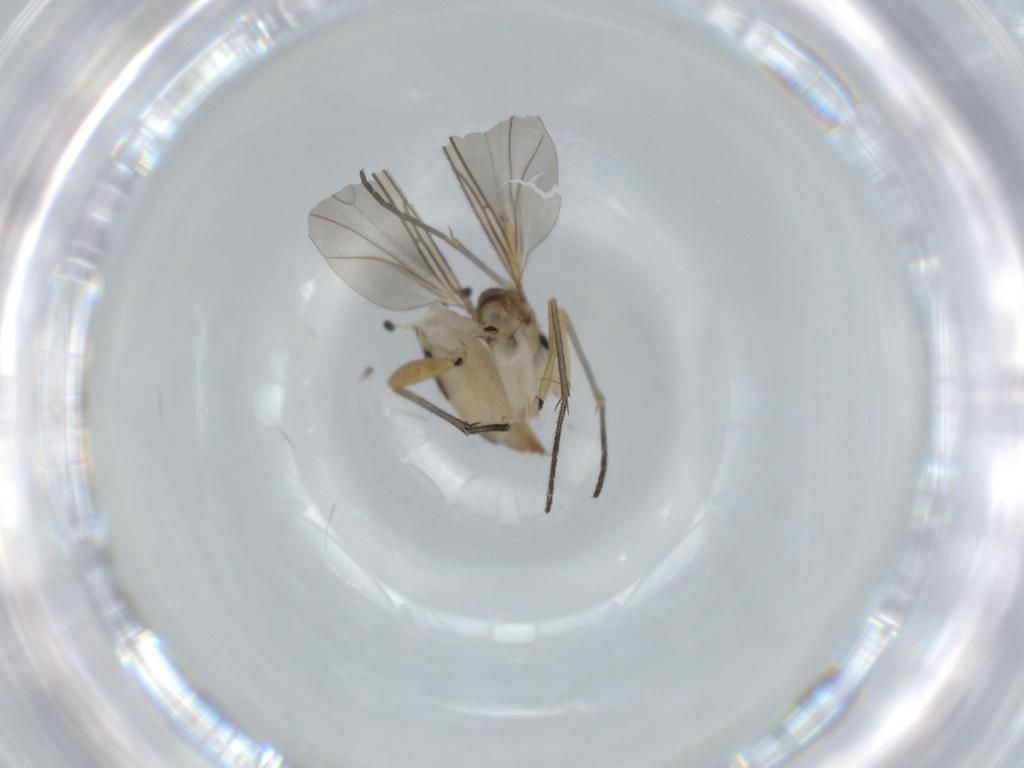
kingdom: Animalia
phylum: Arthropoda
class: Insecta
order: Diptera
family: Sciaridae
